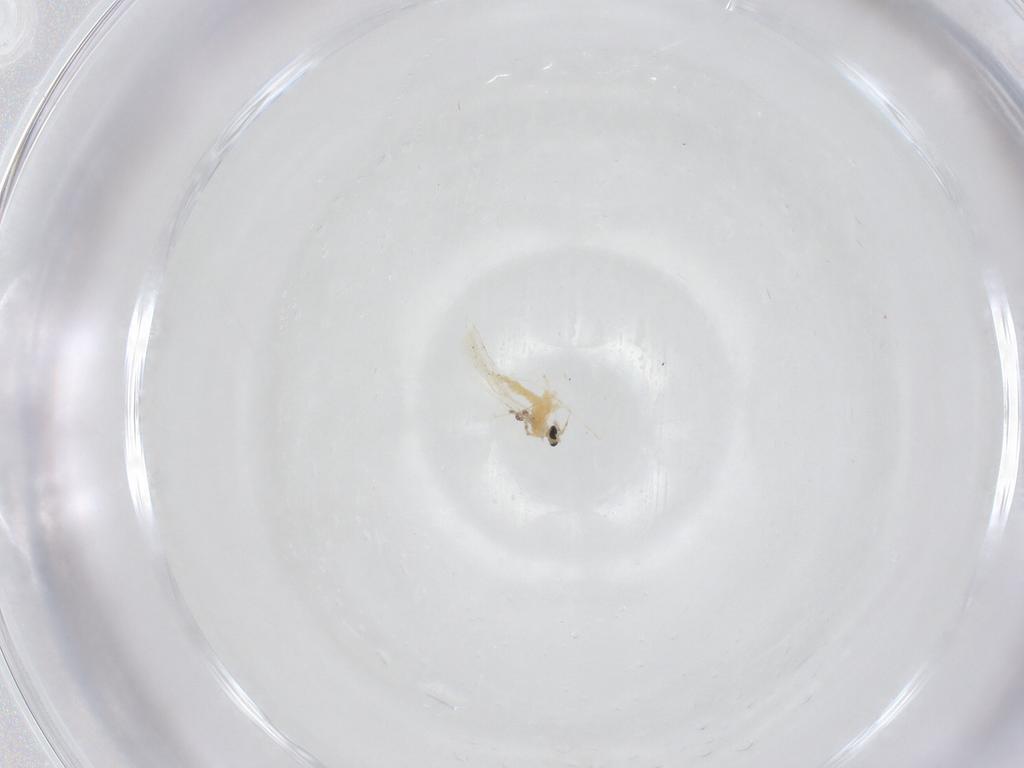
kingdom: Animalia
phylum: Arthropoda
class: Insecta
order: Diptera
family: Cecidomyiidae
